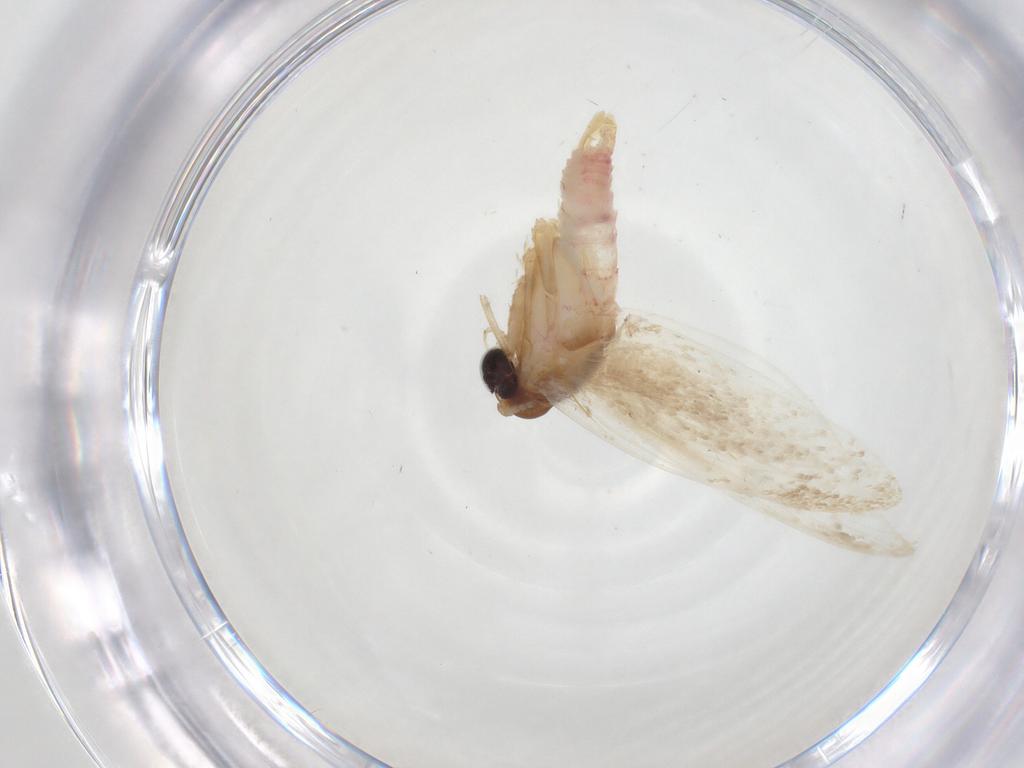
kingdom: Animalia
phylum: Arthropoda
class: Insecta
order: Lepidoptera
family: Autostichidae
